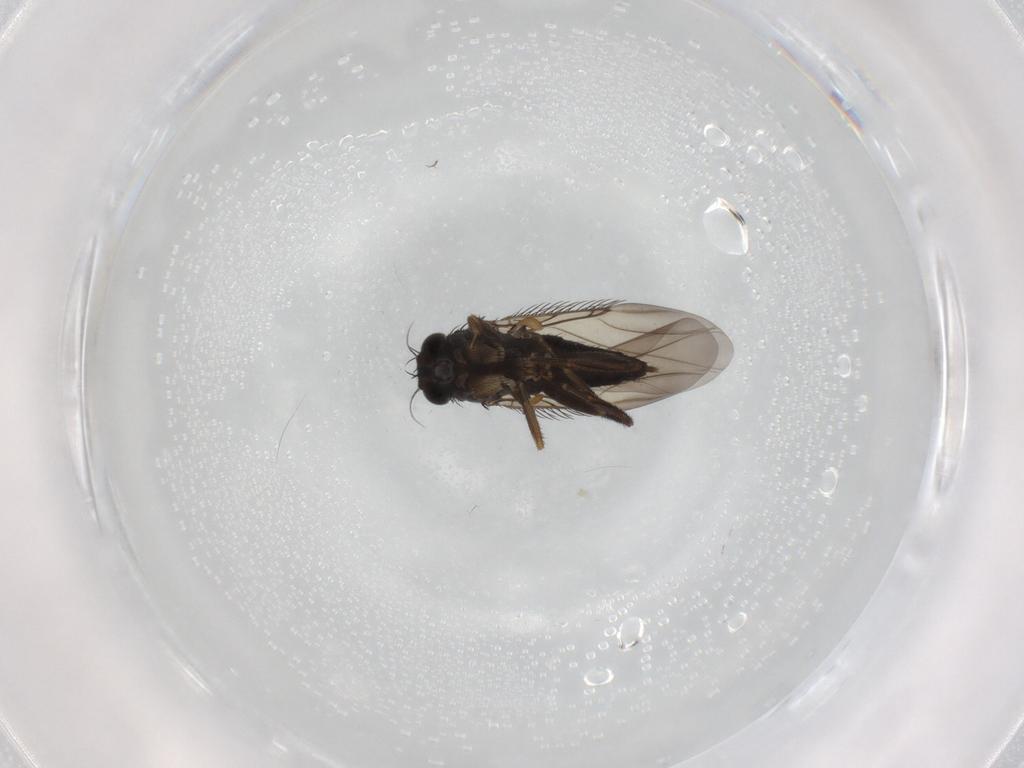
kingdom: Animalia
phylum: Arthropoda
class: Insecta
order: Diptera
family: Phoridae
